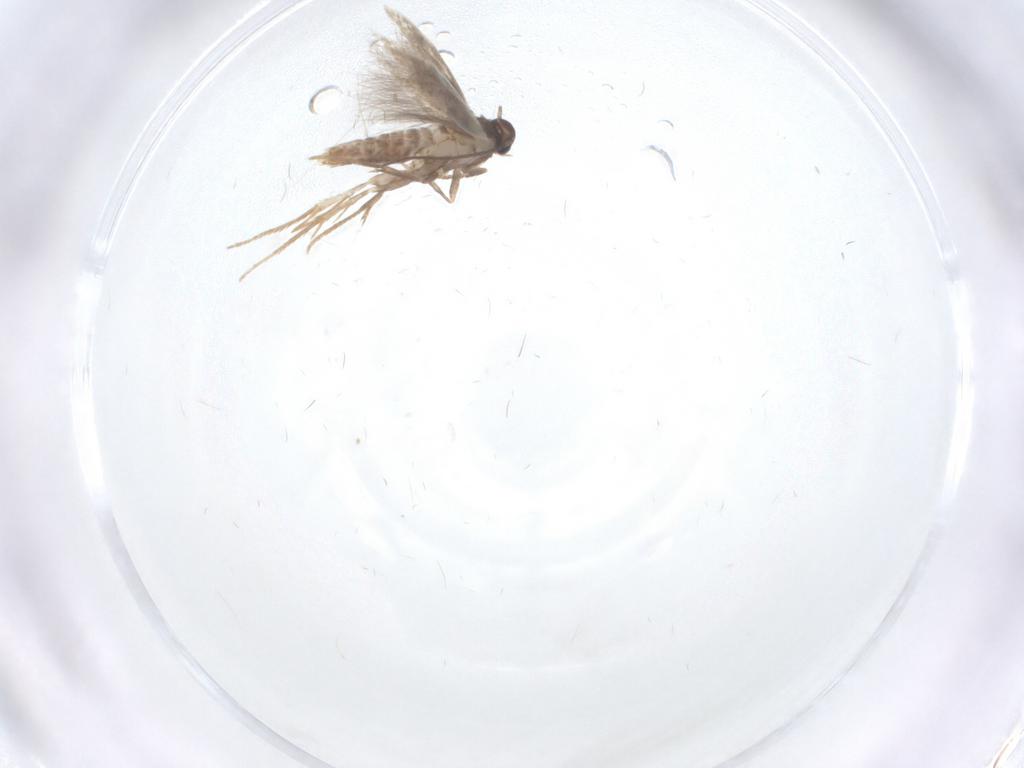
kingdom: Animalia
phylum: Arthropoda
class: Insecta
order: Lepidoptera
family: Heliozelidae
